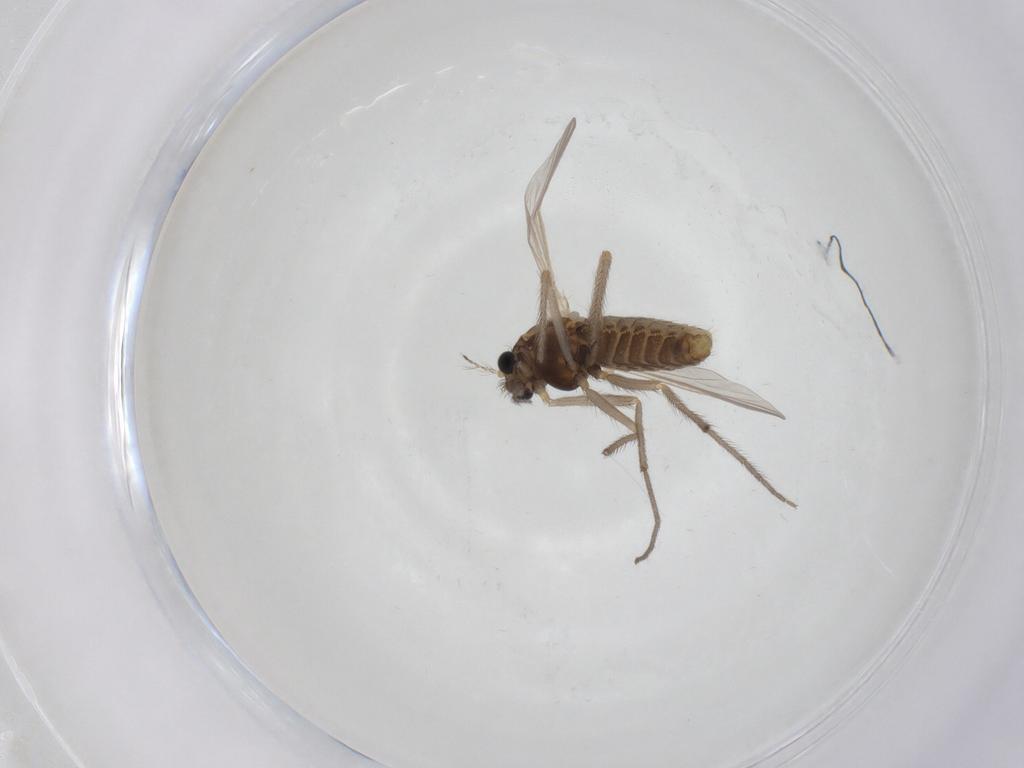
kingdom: Animalia
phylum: Arthropoda
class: Insecta
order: Diptera
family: Chironomidae
